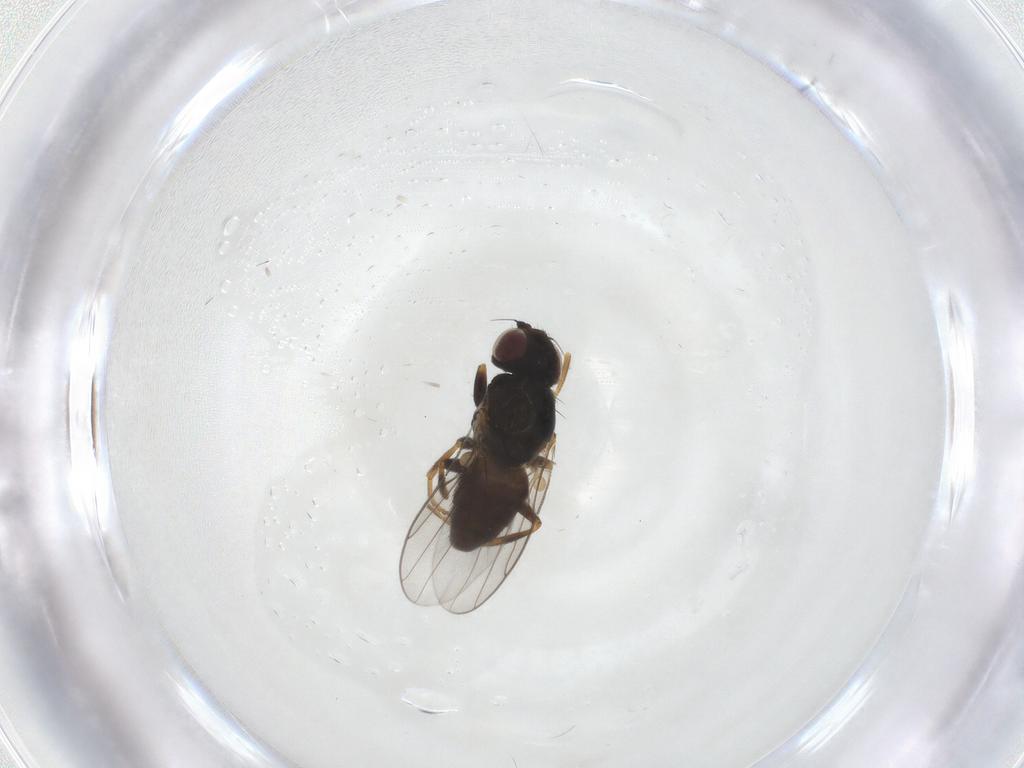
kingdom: Animalia
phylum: Arthropoda
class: Insecta
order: Diptera
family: Chloropidae
